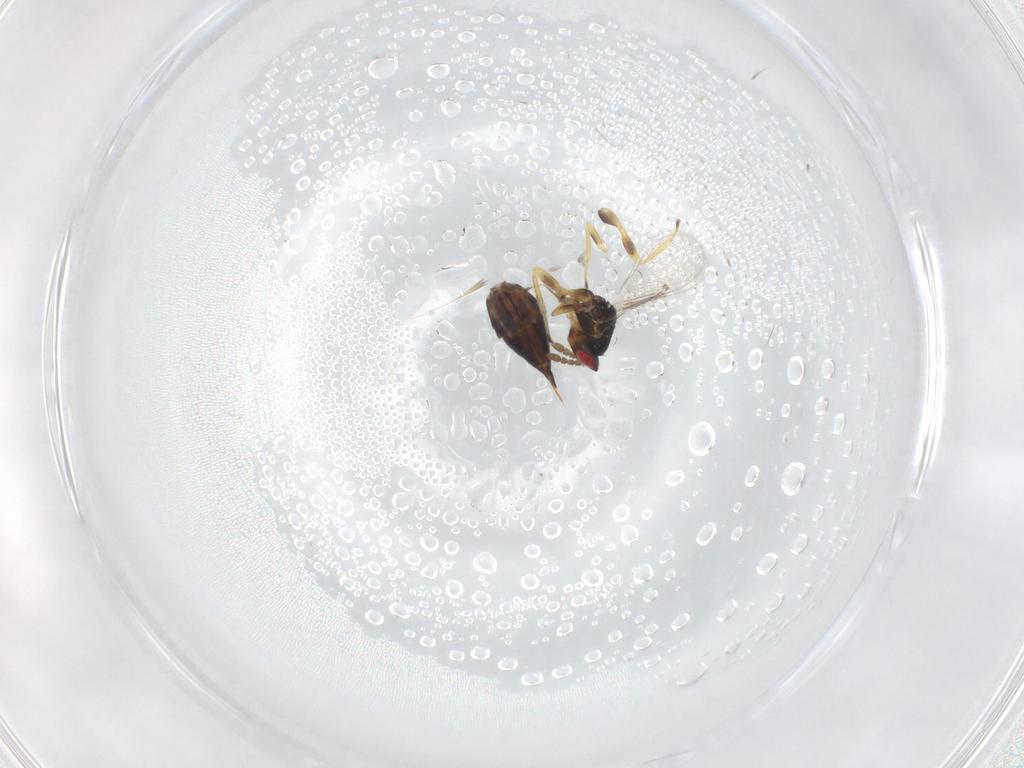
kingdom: Animalia
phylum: Arthropoda
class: Insecta
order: Hymenoptera
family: Eulophidae
